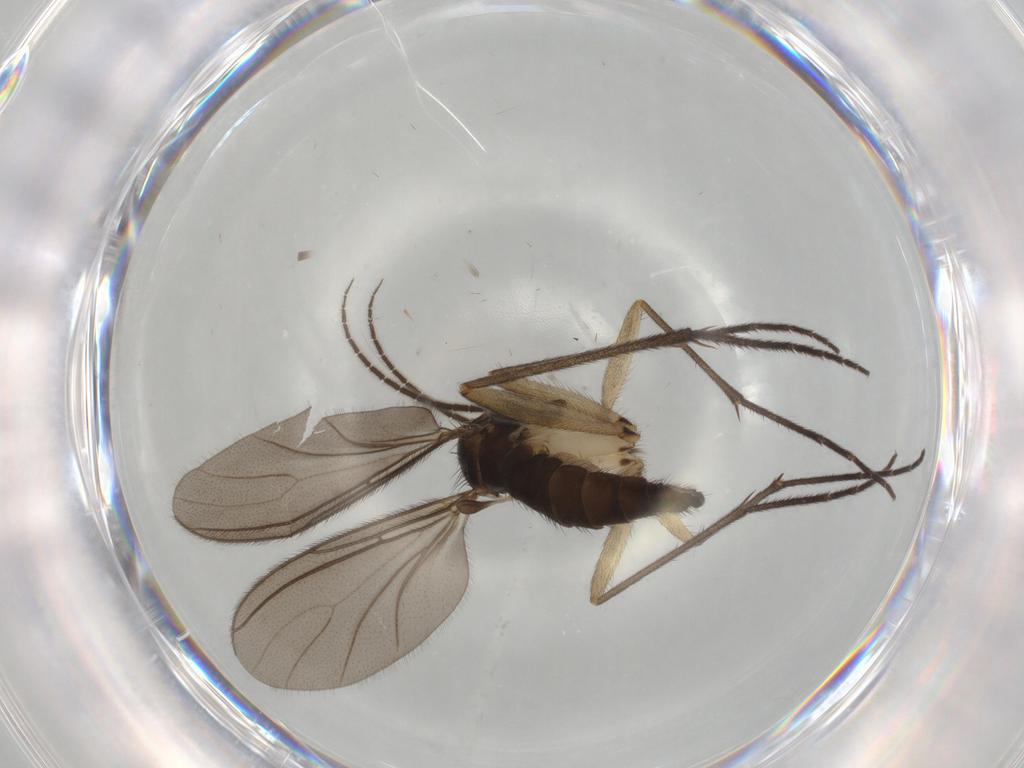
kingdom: Animalia
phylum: Arthropoda
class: Insecta
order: Diptera
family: Sciaridae
